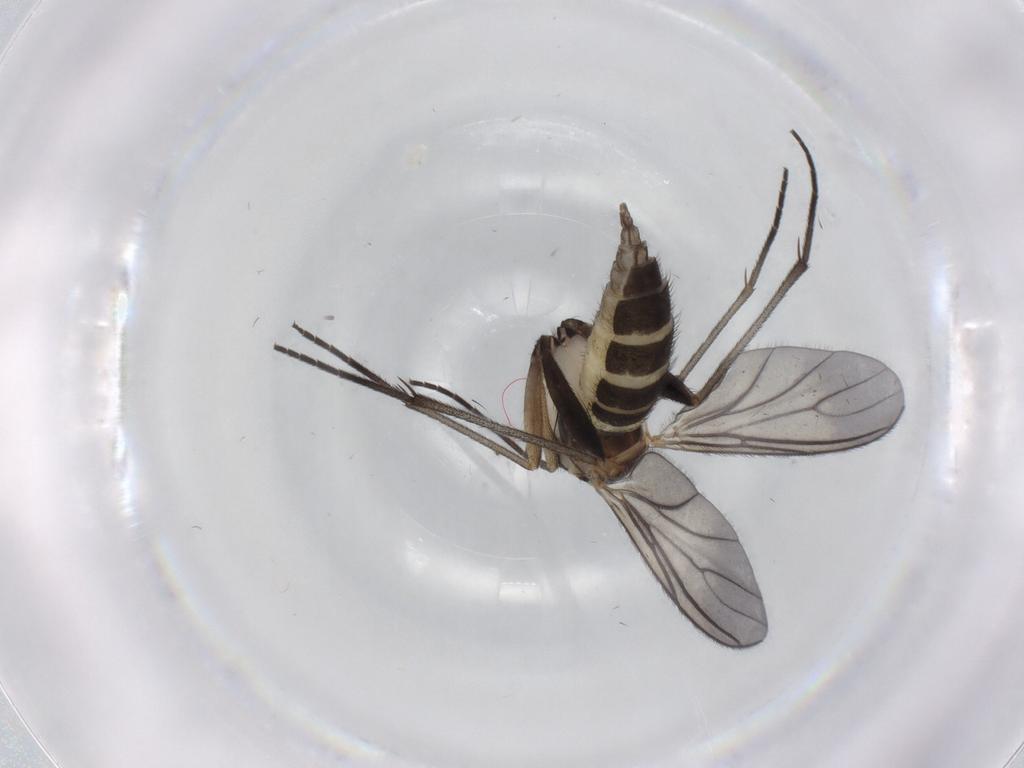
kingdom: Animalia
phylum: Arthropoda
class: Insecta
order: Diptera
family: Sciaridae
